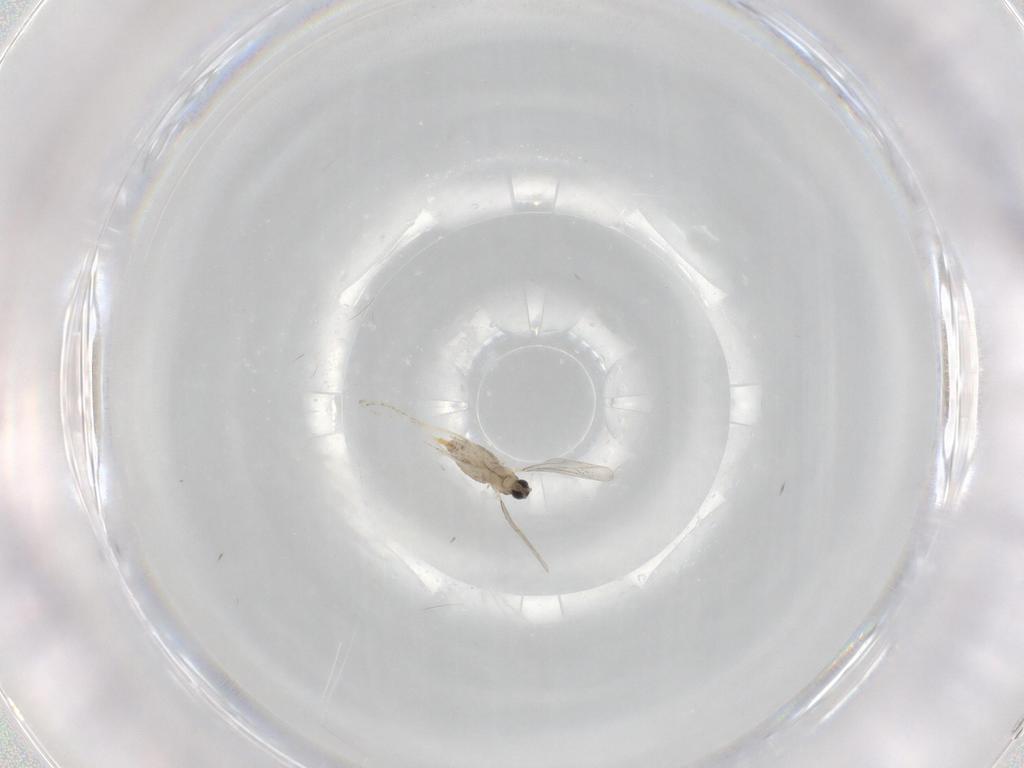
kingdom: Animalia
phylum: Arthropoda
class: Insecta
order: Diptera
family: Cecidomyiidae
